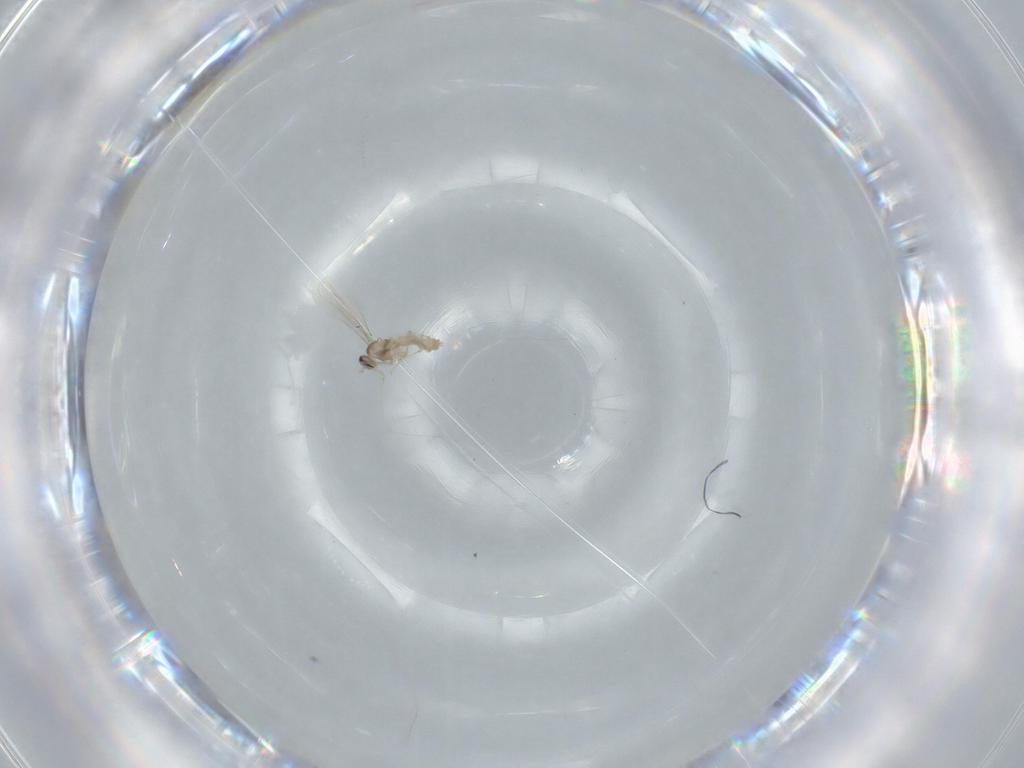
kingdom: Animalia
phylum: Arthropoda
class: Insecta
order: Diptera
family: Cecidomyiidae
